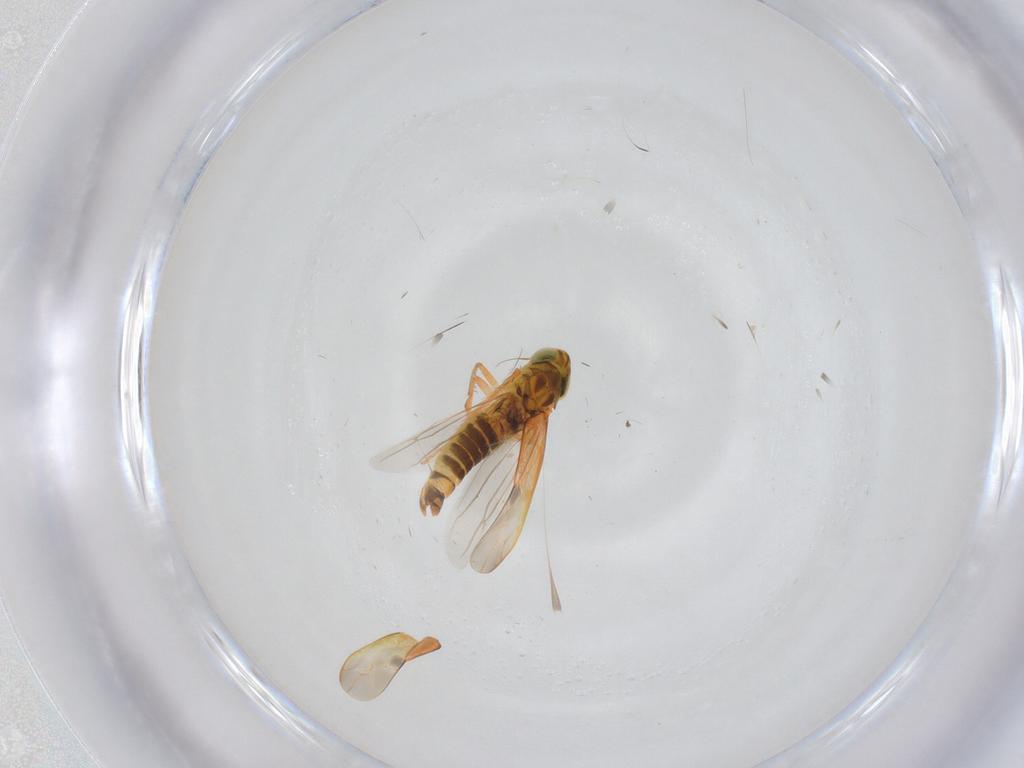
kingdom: Animalia
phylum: Arthropoda
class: Insecta
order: Hemiptera
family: Cicadellidae
